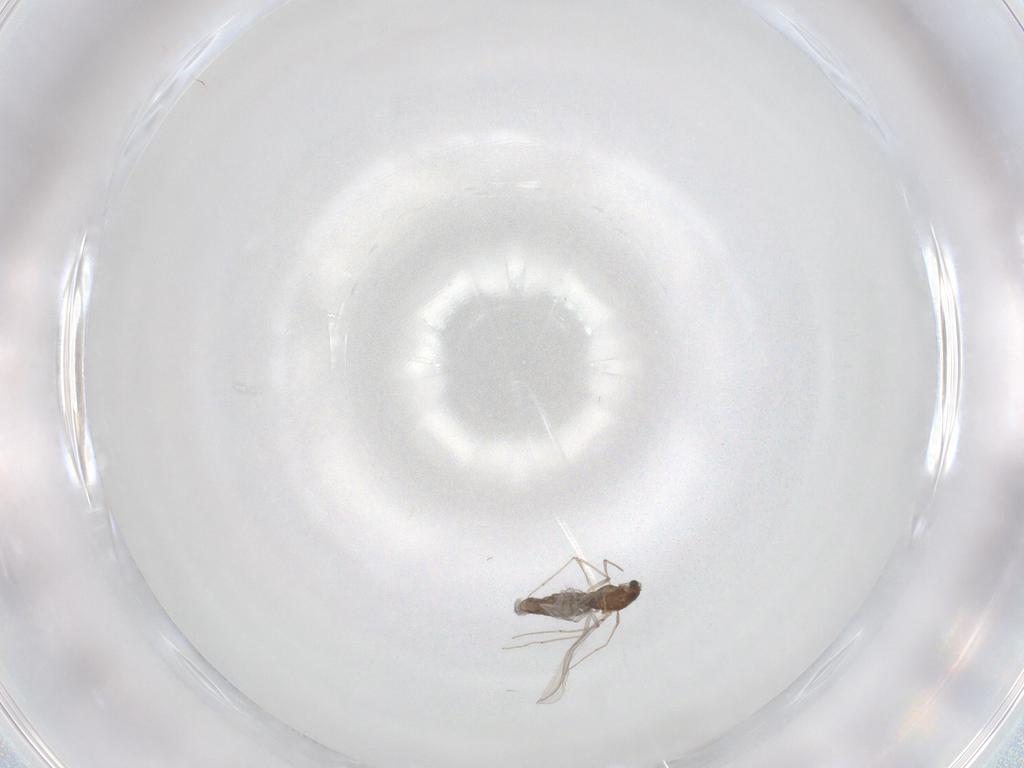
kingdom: Animalia
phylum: Arthropoda
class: Insecta
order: Diptera
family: Chironomidae
